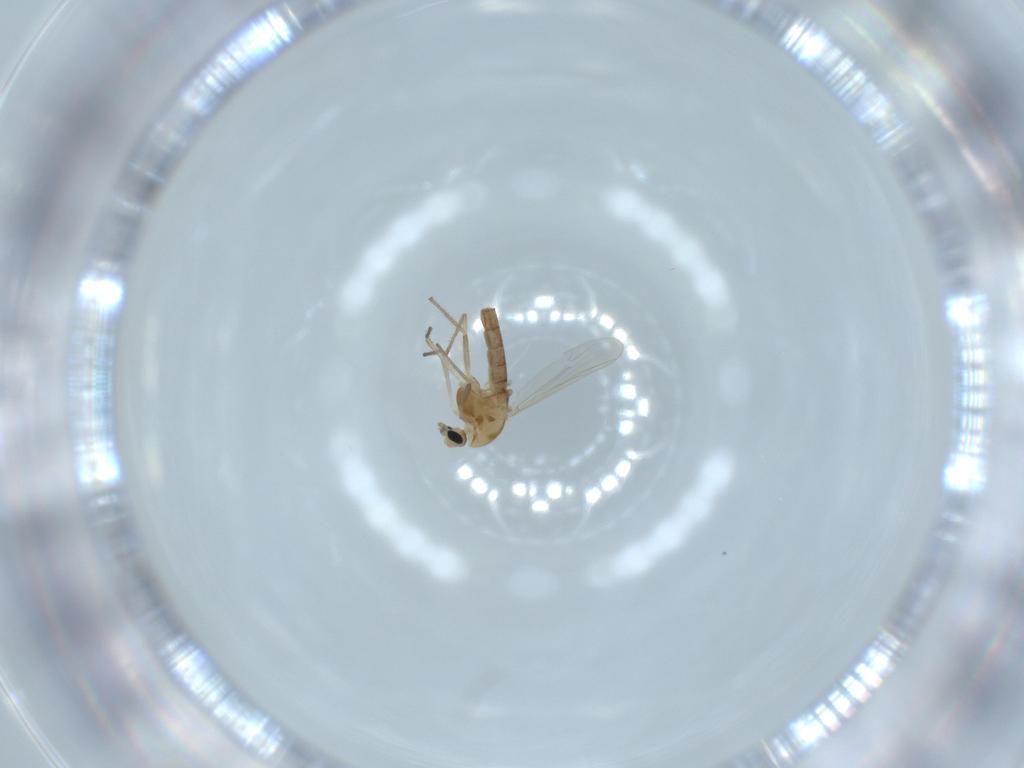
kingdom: Animalia
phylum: Arthropoda
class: Insecta
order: Diptera
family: Chironomidae
